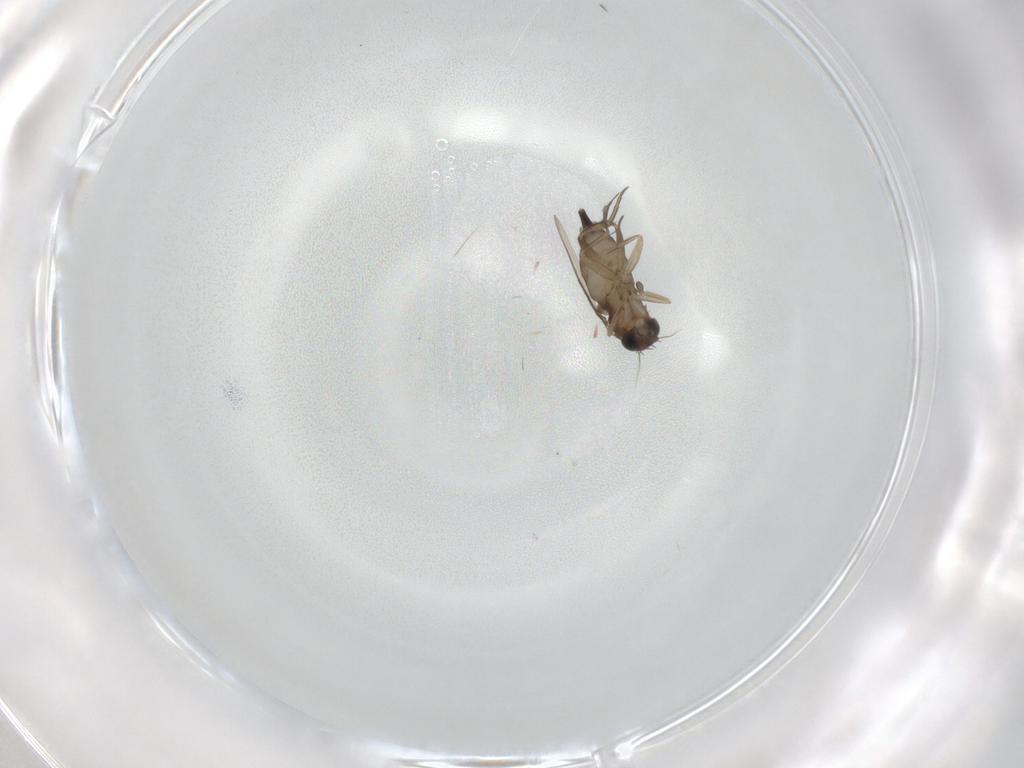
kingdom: Animalia
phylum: Arthropoda
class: Insecta
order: Diptera
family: Phoridae
